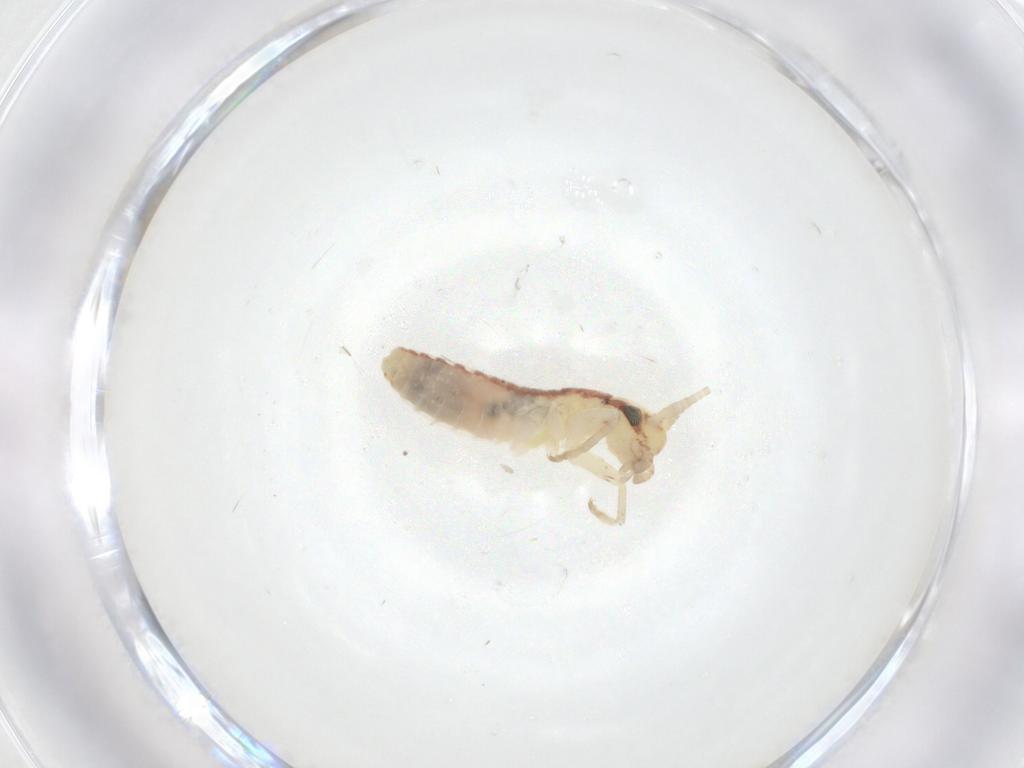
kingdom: Animalia
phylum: Arthropoda
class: Insecta
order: Orthoptera
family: Gryllidae
